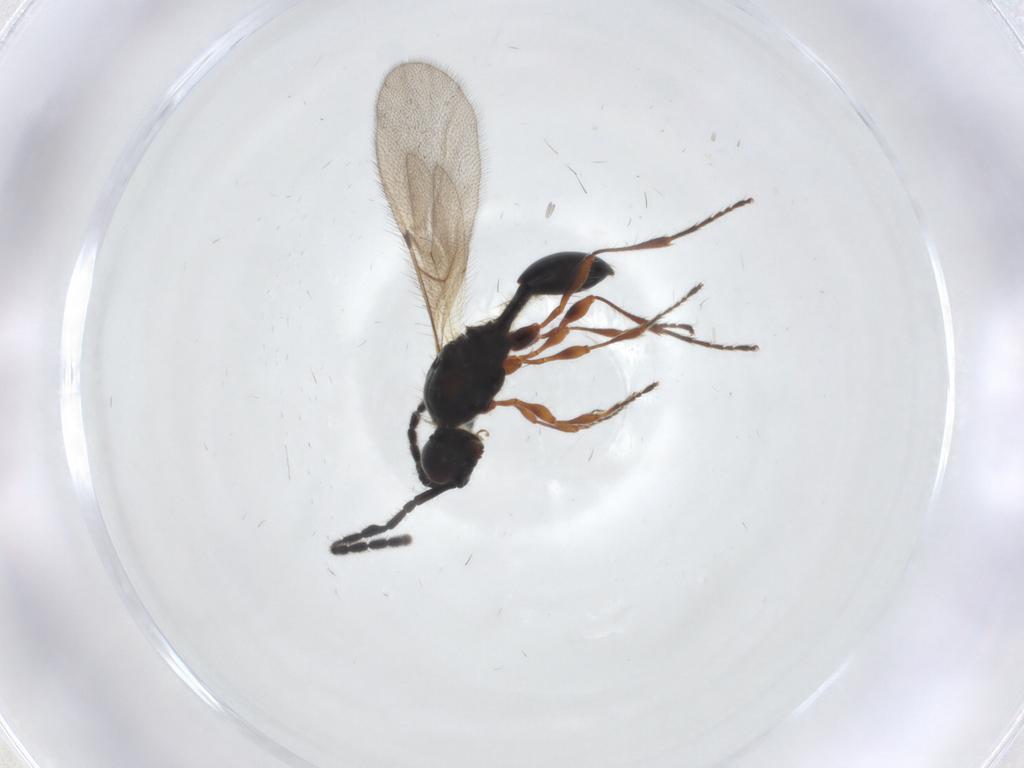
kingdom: Animalia
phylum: Arthropoda
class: Insecta
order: Hymenoptera
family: Diapriidae
